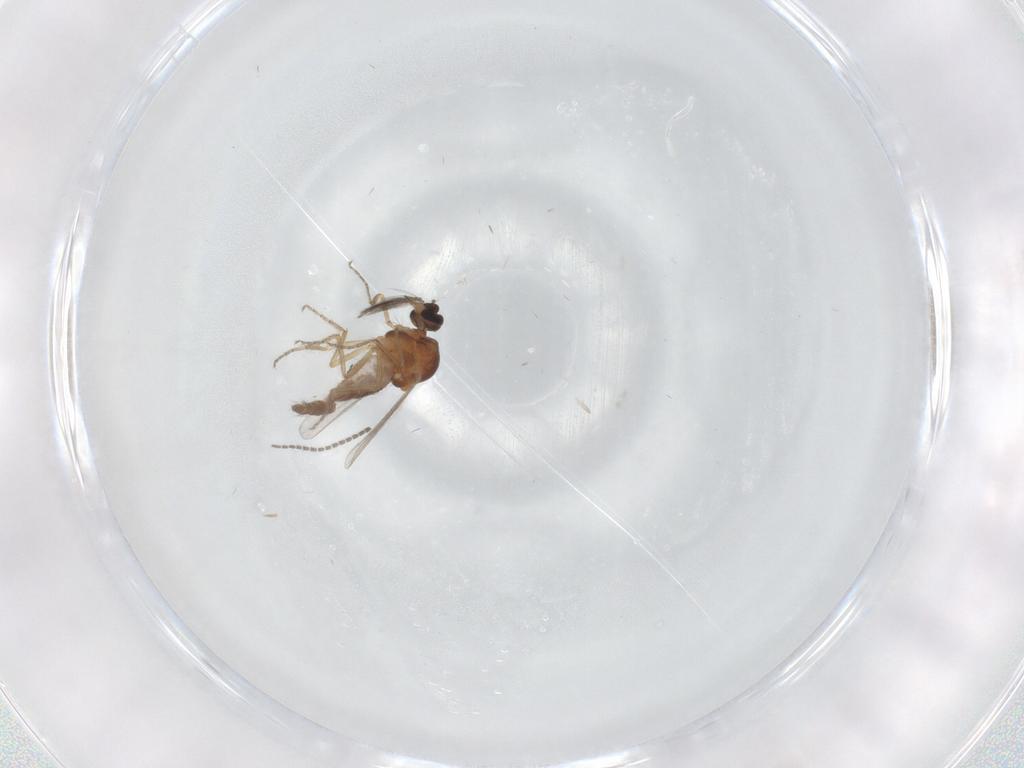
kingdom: Animalia
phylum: Arthropoda
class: Insecta
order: Diptera
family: Ceratopogonidae
